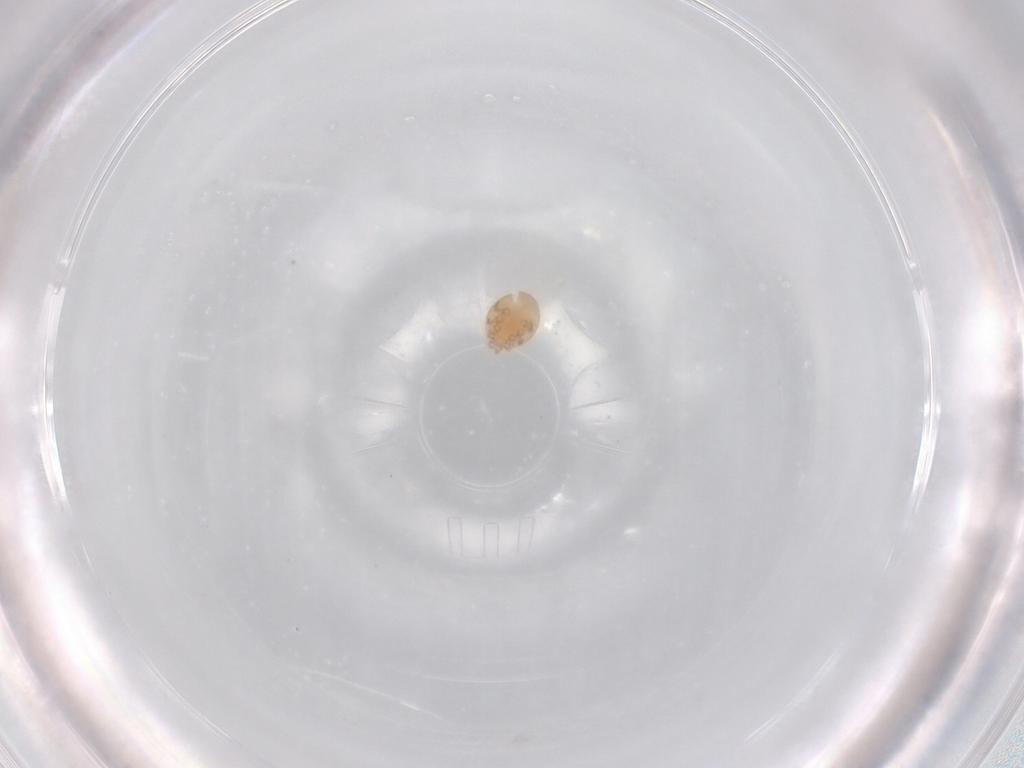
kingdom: Animalia
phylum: Arthropoda
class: Arachnida
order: Mesostigmata
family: Trematuridae
